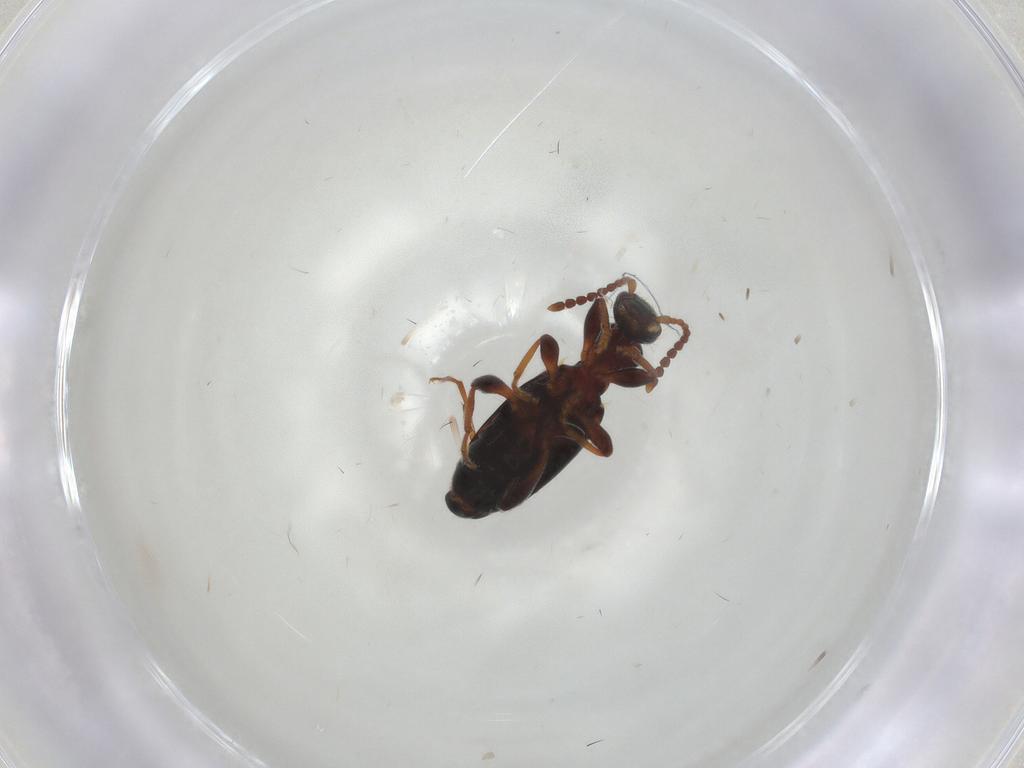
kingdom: Animalia
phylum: Arthropoda
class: Insecta
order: Coleoptera
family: Anthicidae
